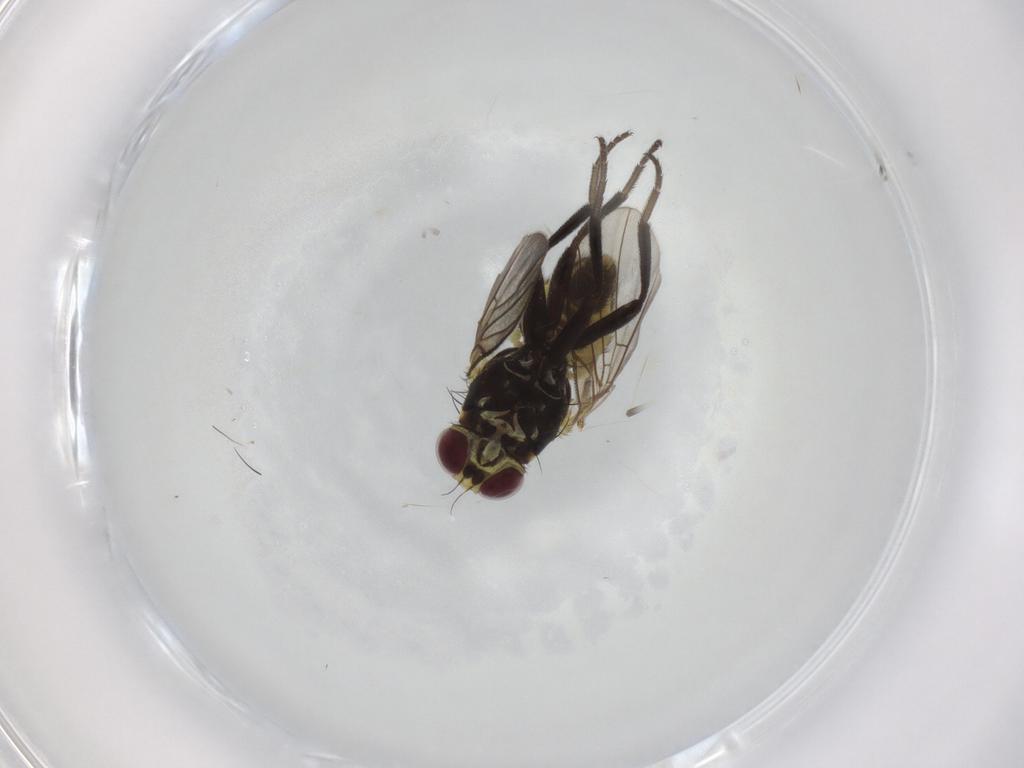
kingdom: Animalia
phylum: Arthropoda
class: Insecta
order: Diptera
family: Agromyzidae
